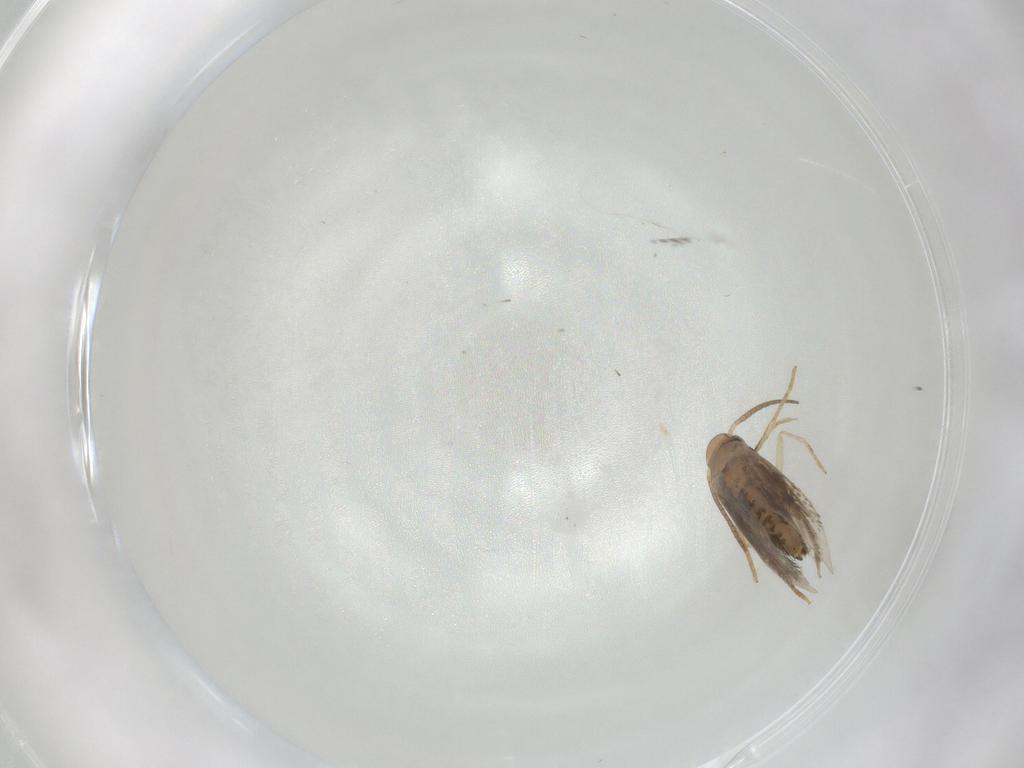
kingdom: Animalia
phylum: Arthropoda
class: Insecta
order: Lepidoptera
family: Heliozelidae
